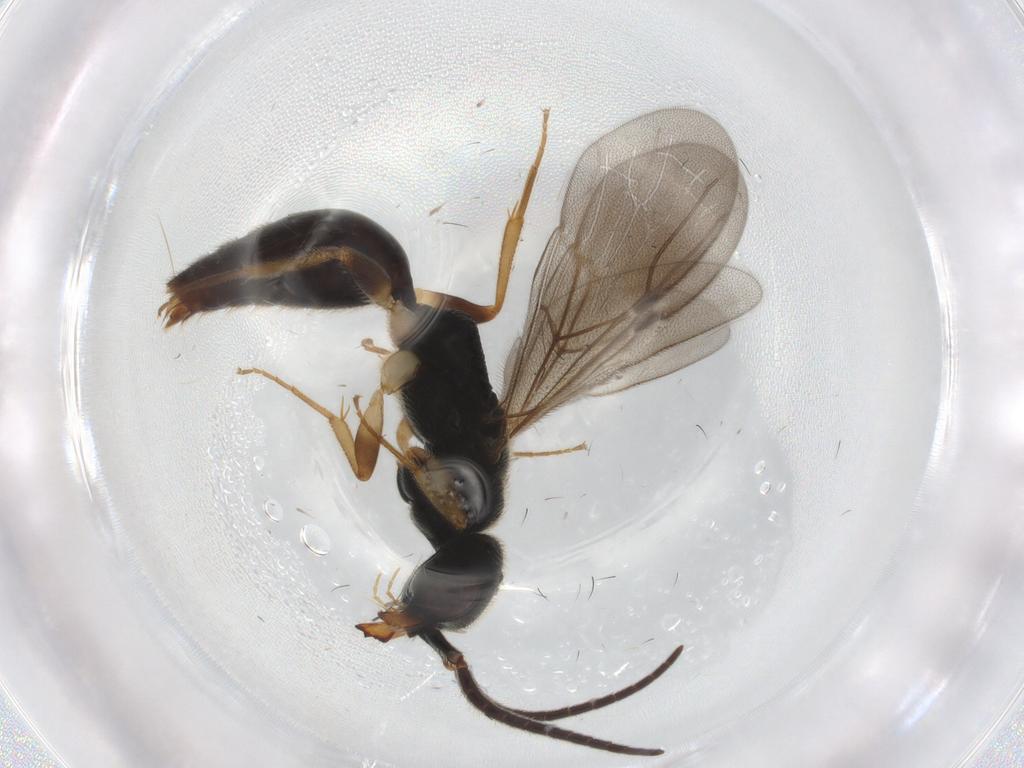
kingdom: Animalia
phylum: Arthropoda
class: Insecta
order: Hymenoptera
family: Bethylidae
